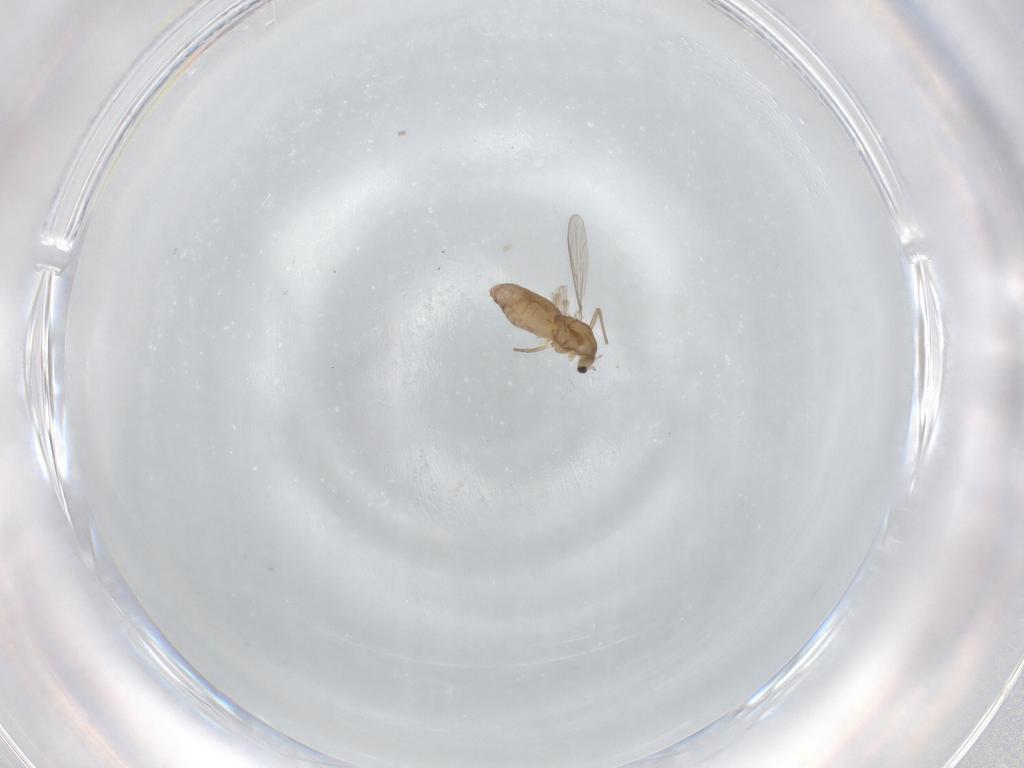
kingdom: Animalia
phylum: Arthropoda
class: Insecta
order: Diptera
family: Chironomidae
